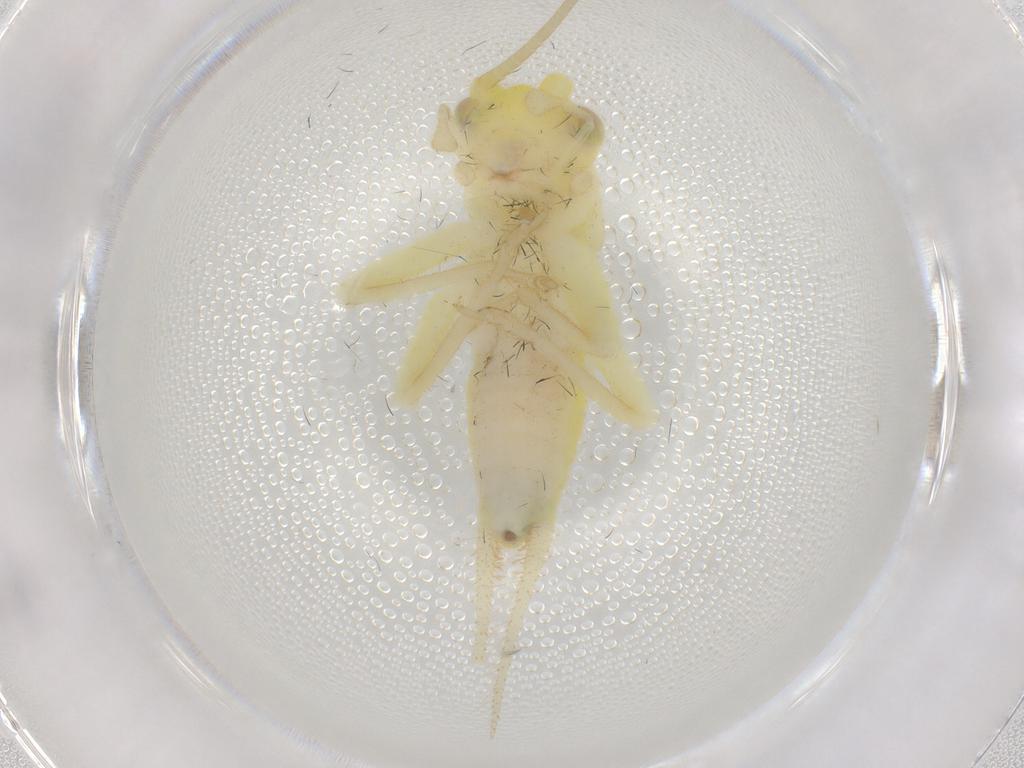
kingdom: Animalia
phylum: Arthropoda
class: Insecta
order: Orthoptera
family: Trigonidiidae
